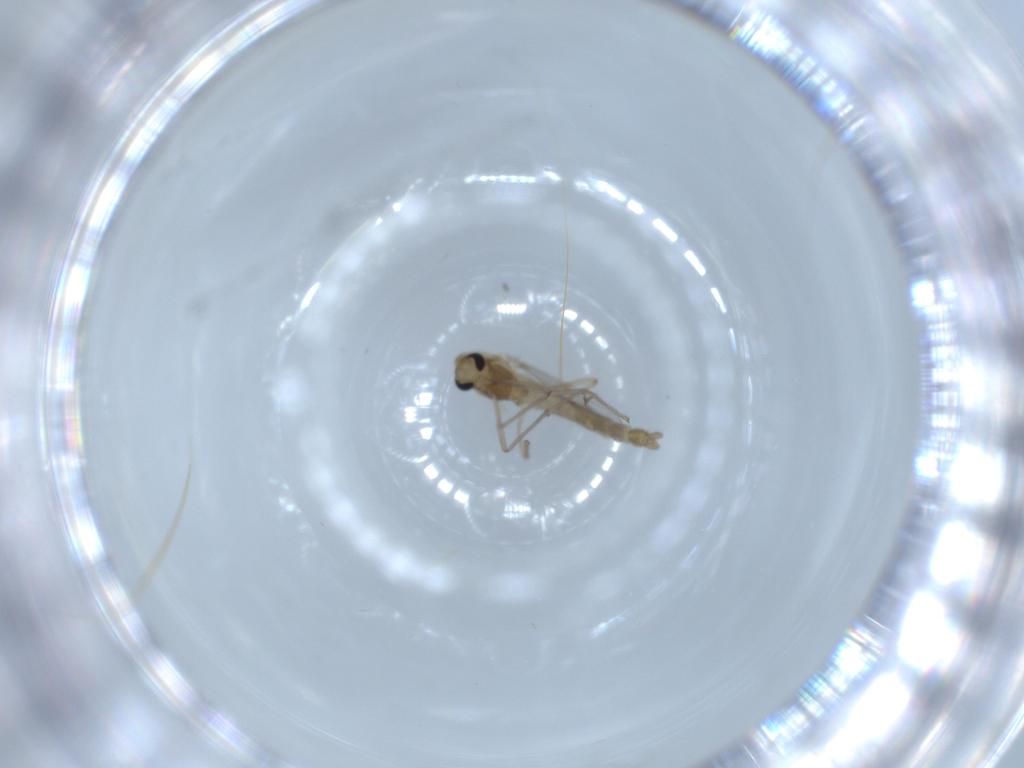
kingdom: Animalia
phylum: Arthropoda
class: Insecta
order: Diptera
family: Chironomidae
